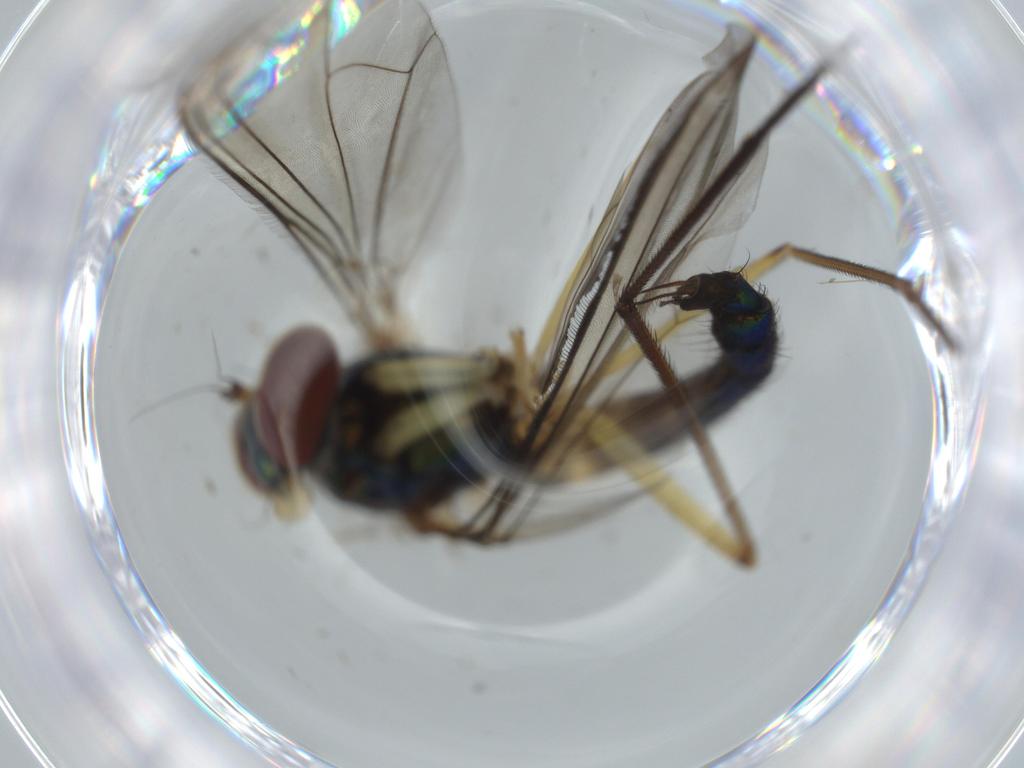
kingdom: Animalia
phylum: Arthropoda
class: Insecta
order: Diptera
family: Dolichopodidae
